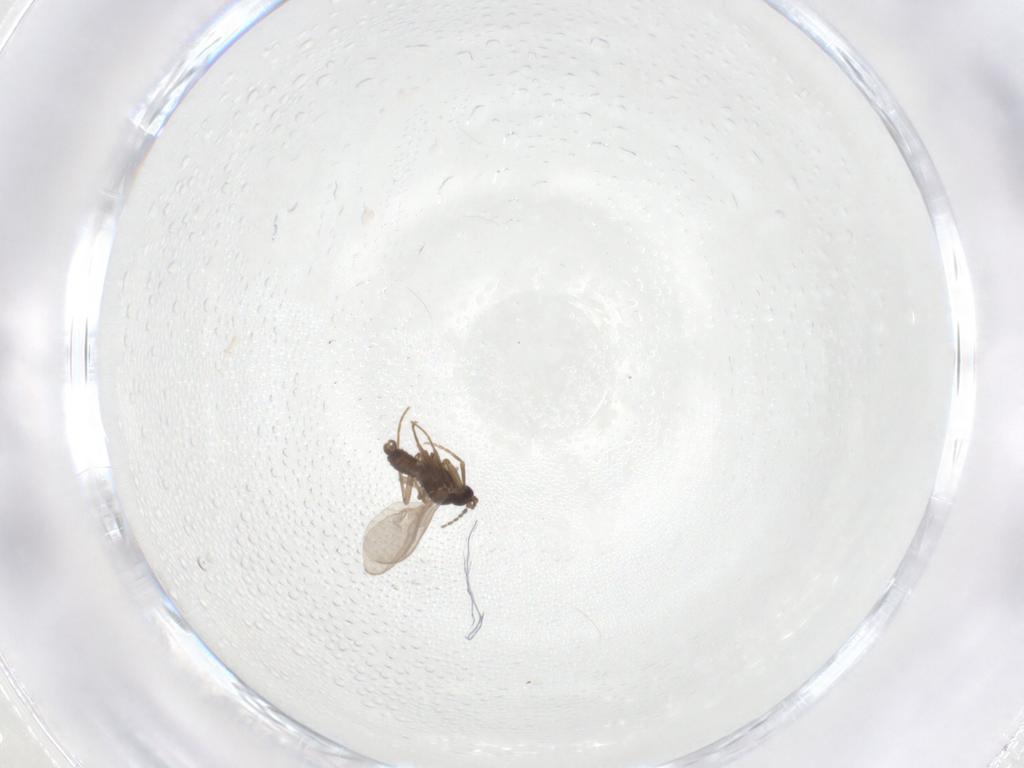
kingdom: Animalia
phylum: Arthropoda
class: Insecta
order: Diptera
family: Sciaridae
